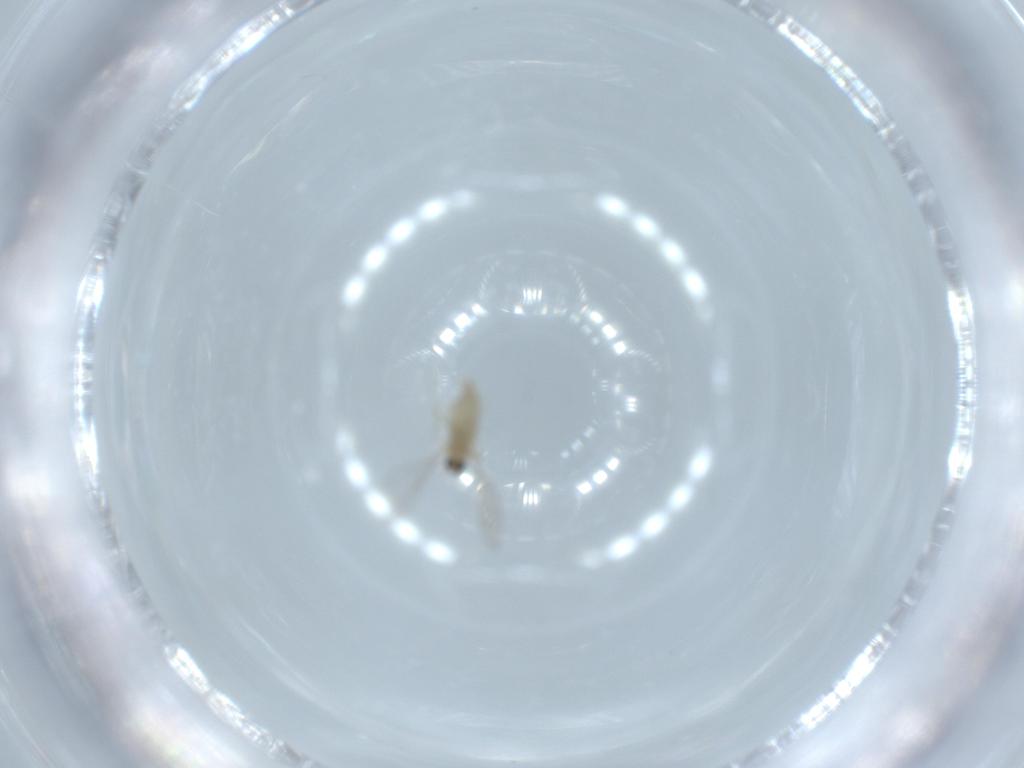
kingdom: Animalia
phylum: Arthropoda
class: Insecta
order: Diptera
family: Cecidomyiidae
